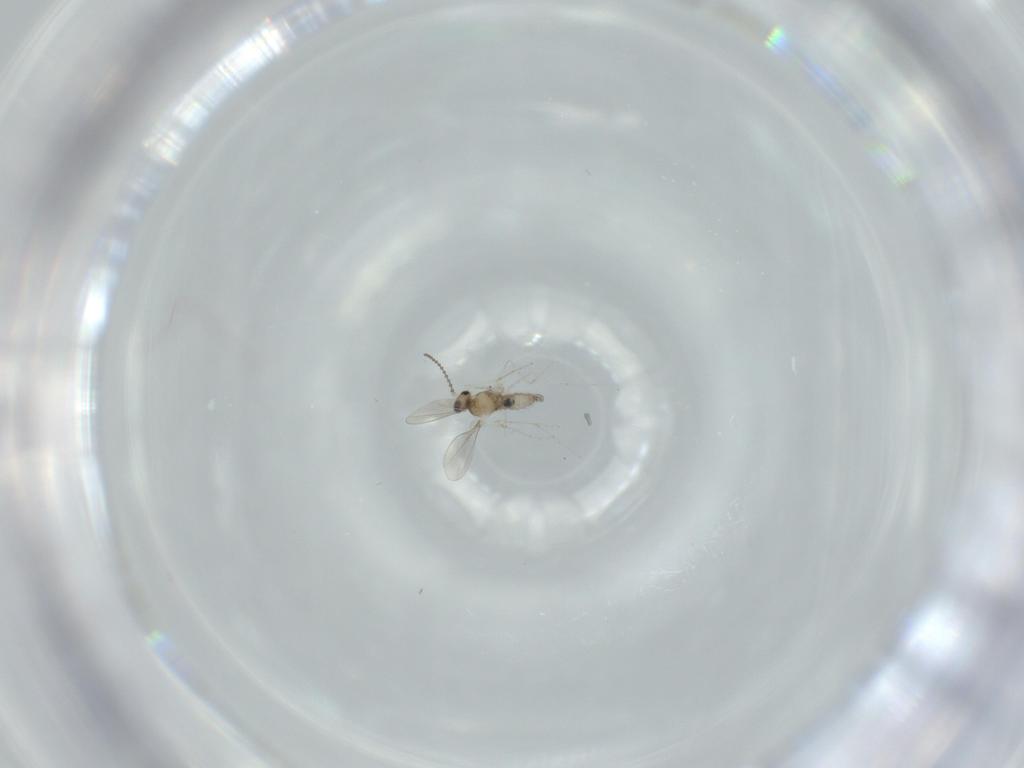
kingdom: Animalia
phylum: Arthropoda
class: Insecta
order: Diptera
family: Cecidomyiidae
